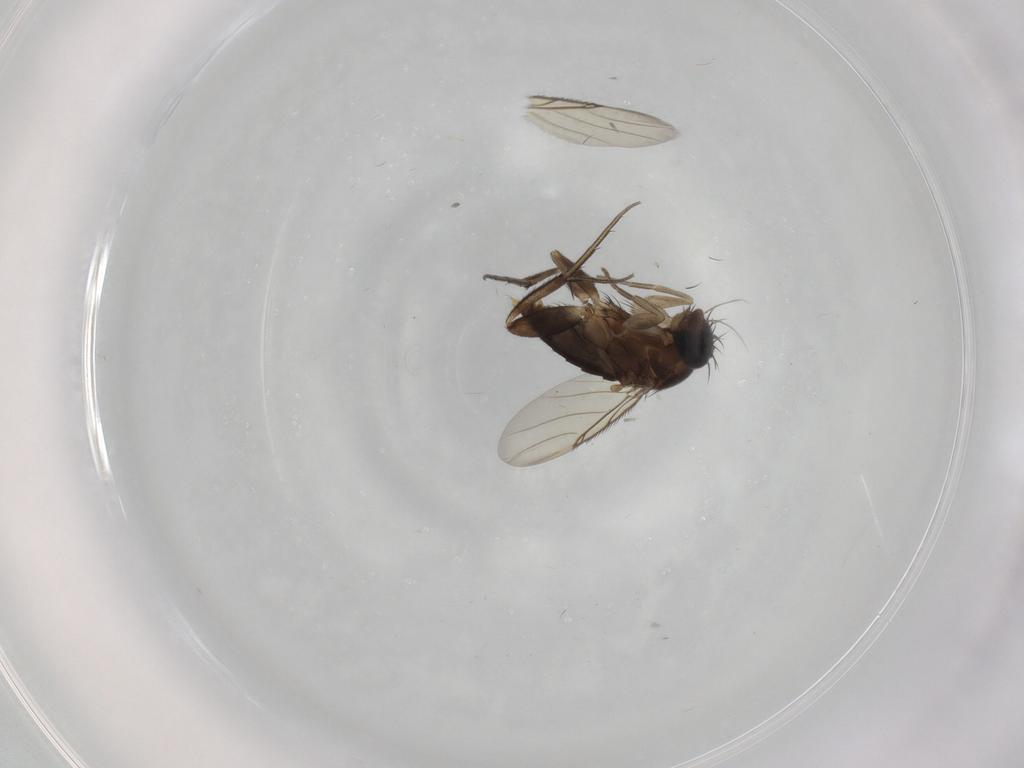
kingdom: Animalia
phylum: Arthropoda
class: Insecta
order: Diptera
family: Phoridae
